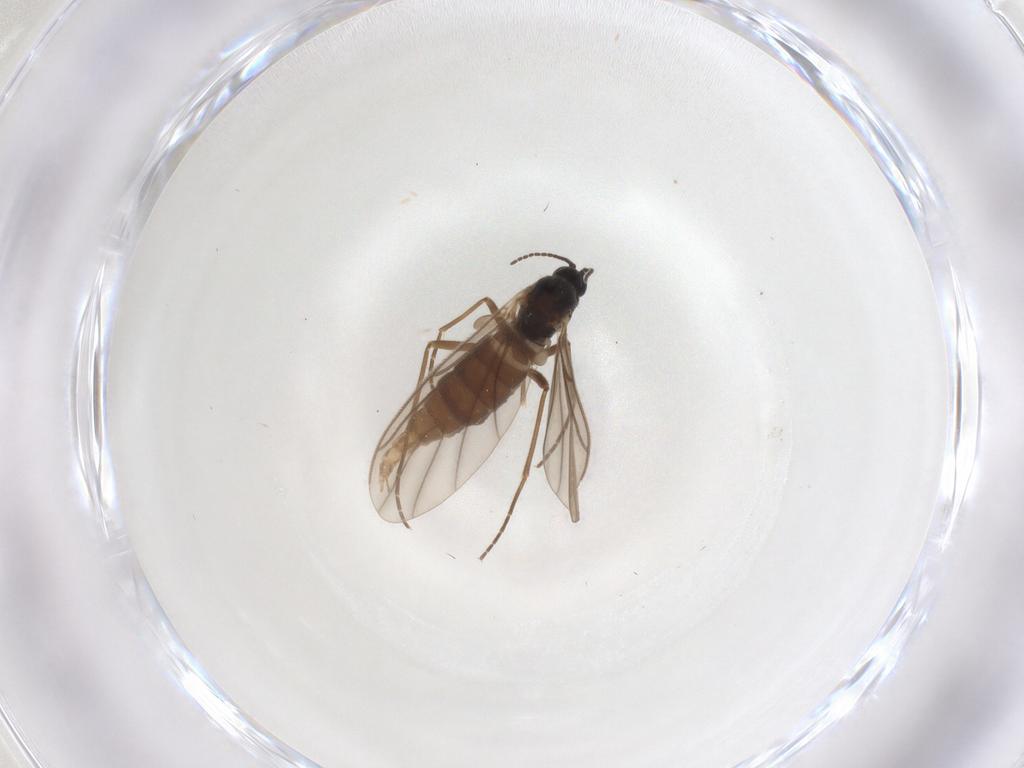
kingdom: Animalia
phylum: Arthropoda
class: Insecta
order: Diptera
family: Sciaridae
